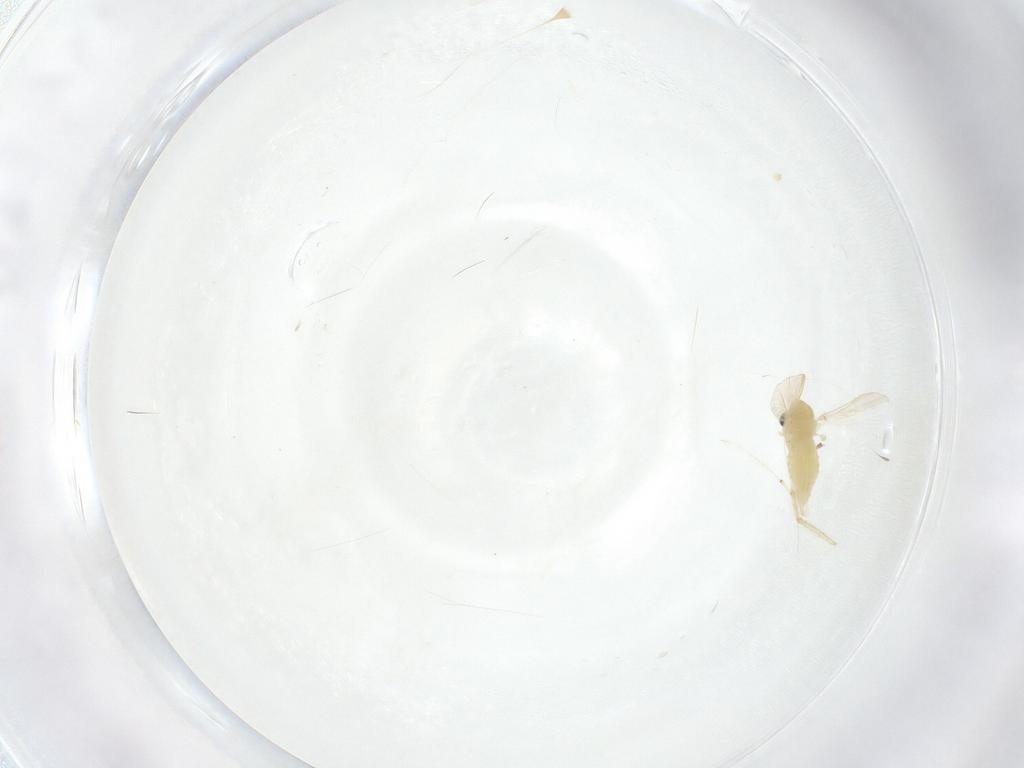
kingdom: Animalia
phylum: Arthropoda
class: Insecta
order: Diptera
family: Chironomidae
